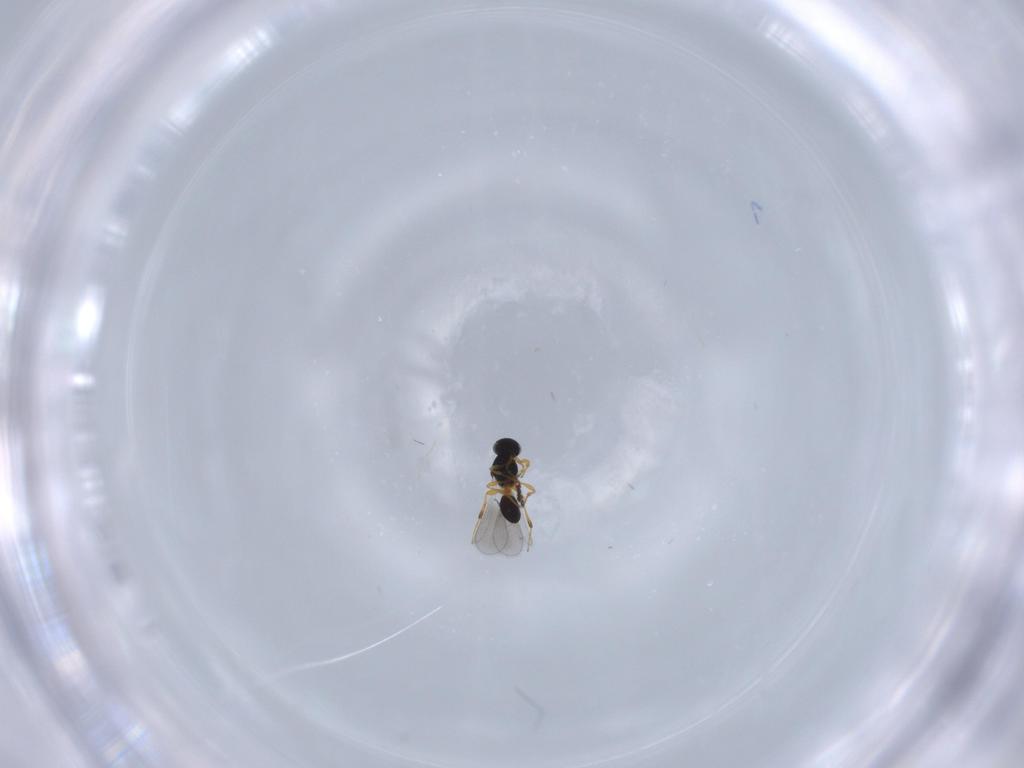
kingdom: Animalia
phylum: Arthropoda
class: Insecta
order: Hymenoptera
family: Platygastridae
